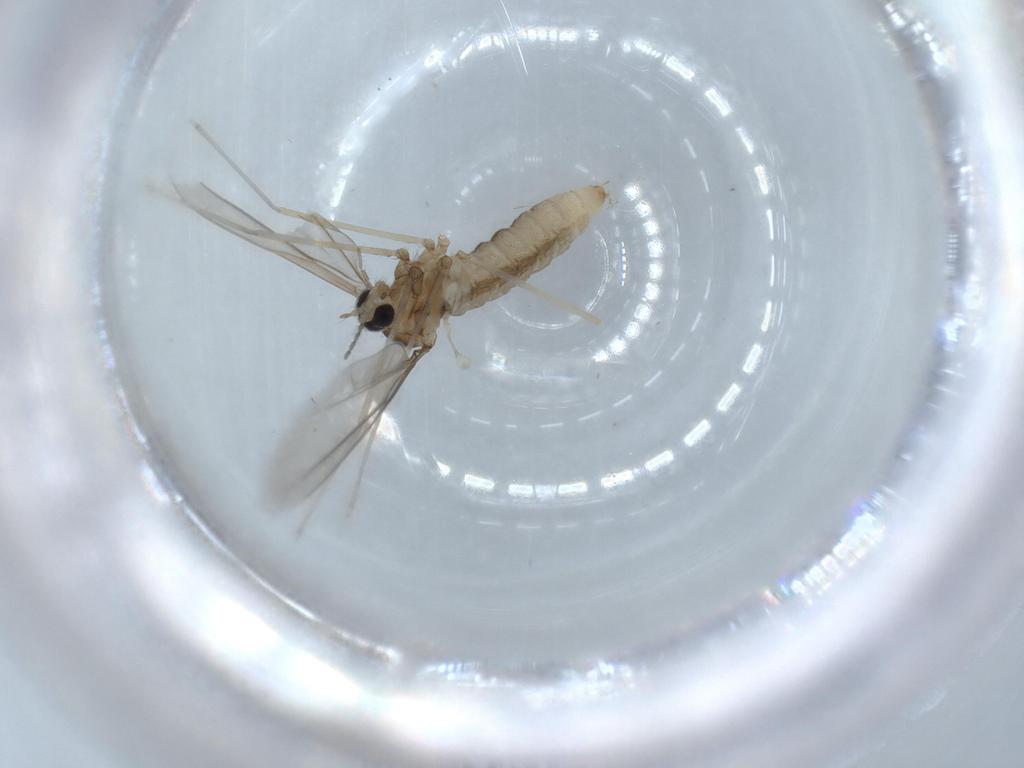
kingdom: Animalia
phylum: Arthropoda
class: Insecta
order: Diptera
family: Cecidomyiidae
